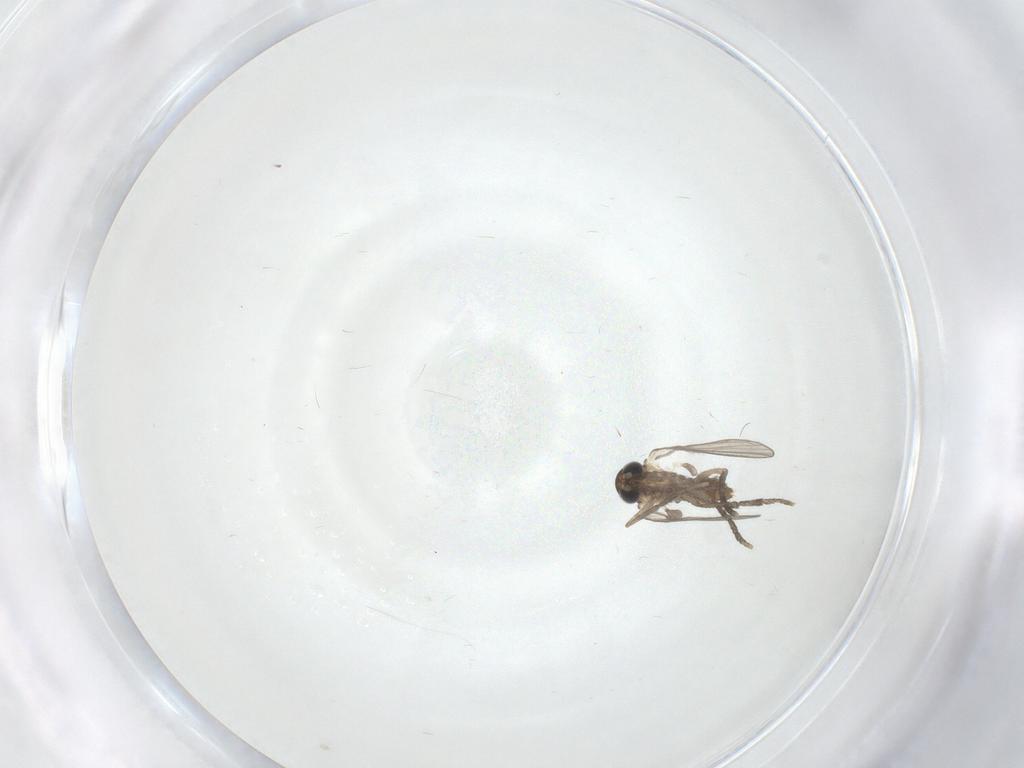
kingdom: Animalia
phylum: Arthropoda
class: Insecta
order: Diptera
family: Psychodidae
